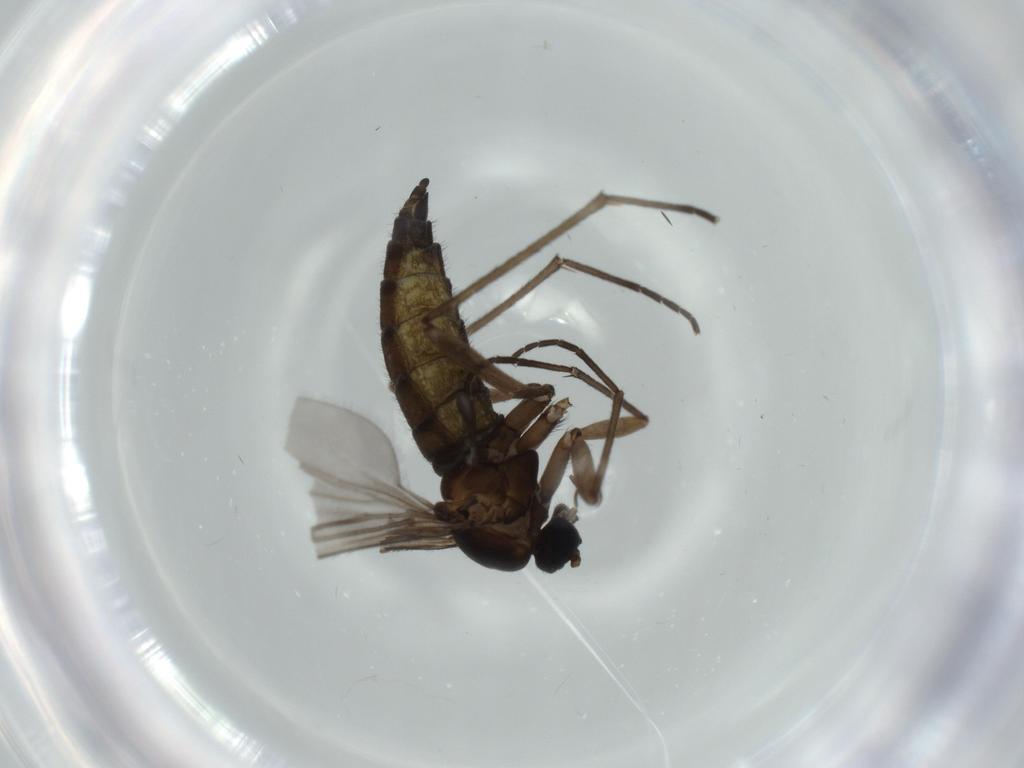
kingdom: Animalia
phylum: Arthropoda
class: Insecta
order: Diptera
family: Sciaridae
